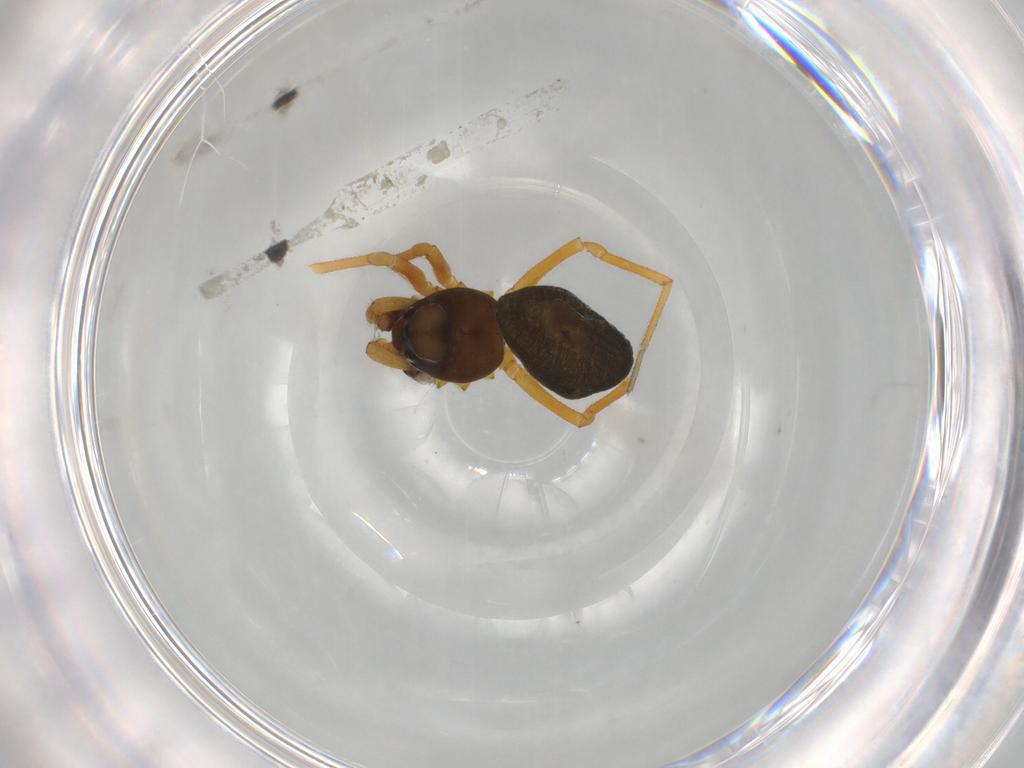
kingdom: Animalia
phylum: Arthropoda
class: Arachnida
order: Araneae
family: Linyphiidae
